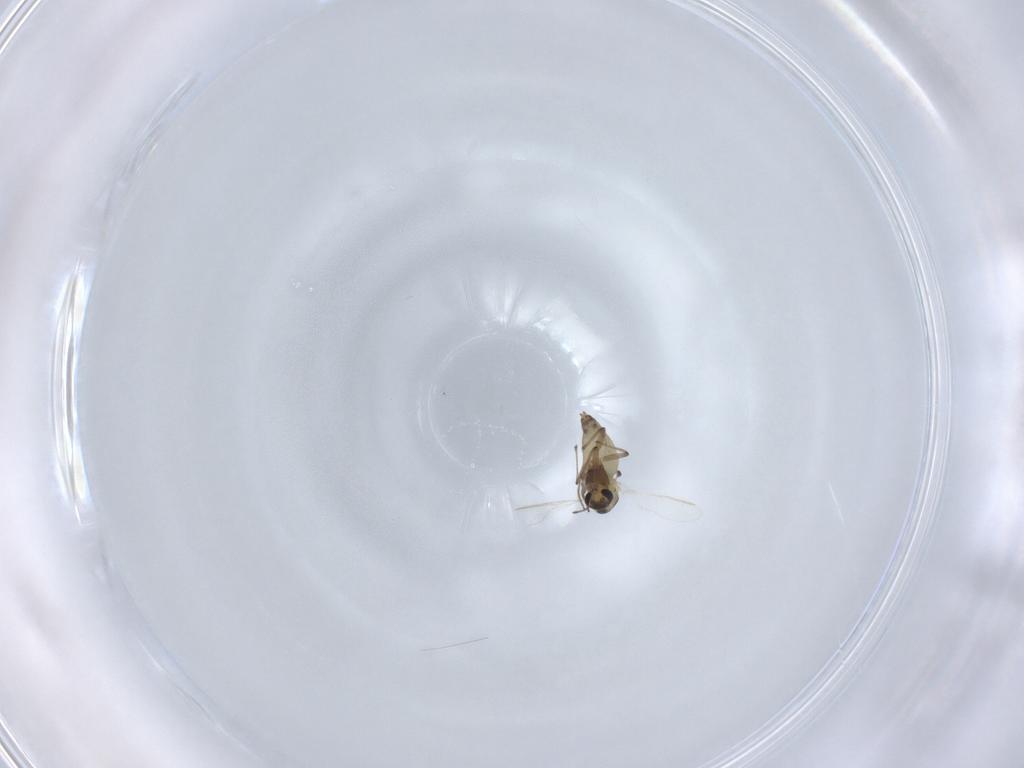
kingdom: Animalia
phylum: Arthropoda
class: Insecta
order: Diptera
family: Chironomidae
